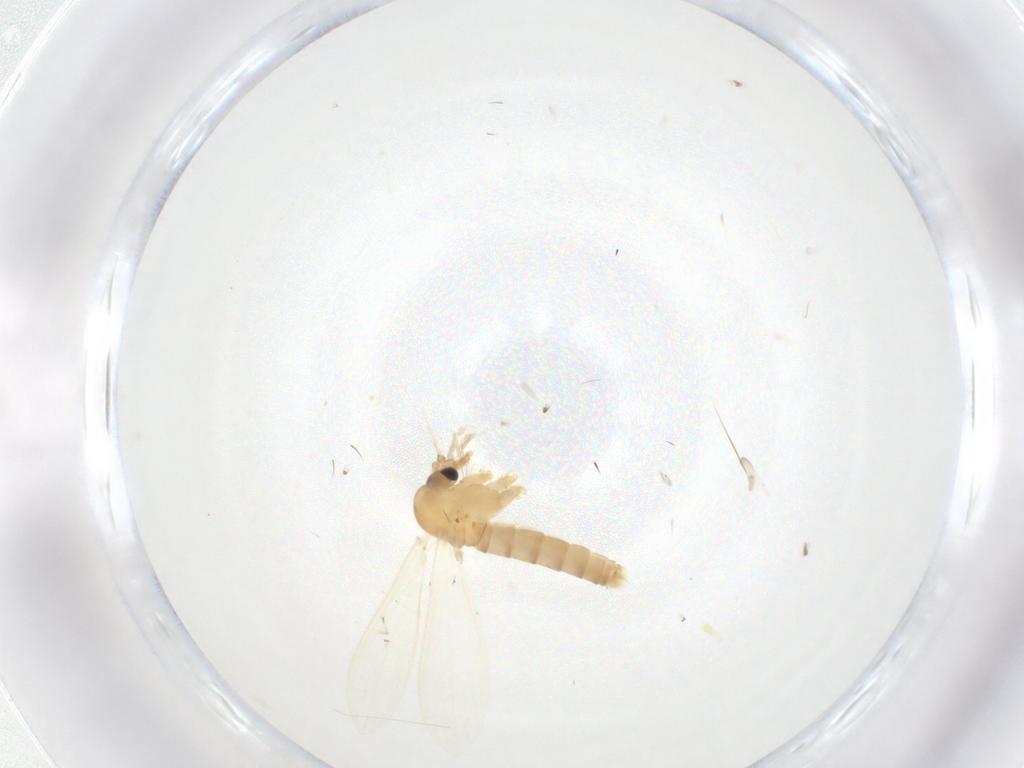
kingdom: Animalia
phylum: Arthropoda
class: Insecta
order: Diptera
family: Psychodidae
